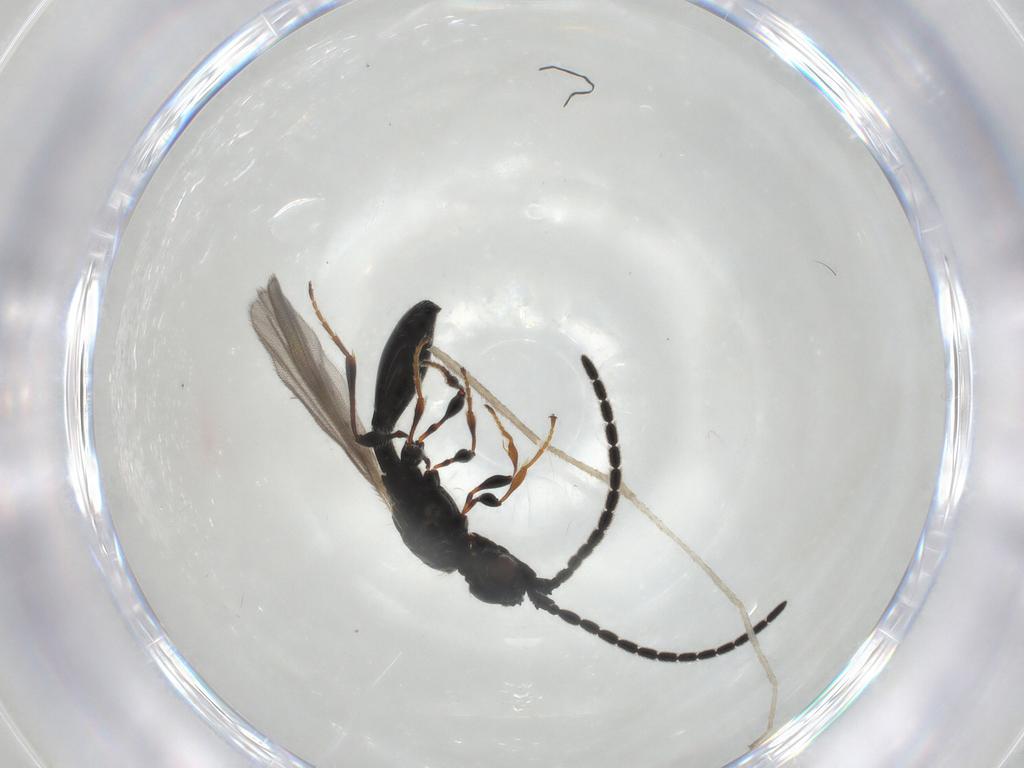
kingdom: Animalia
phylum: Arthropoda
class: Insecta
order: Hymenoptera
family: Diapriidae
